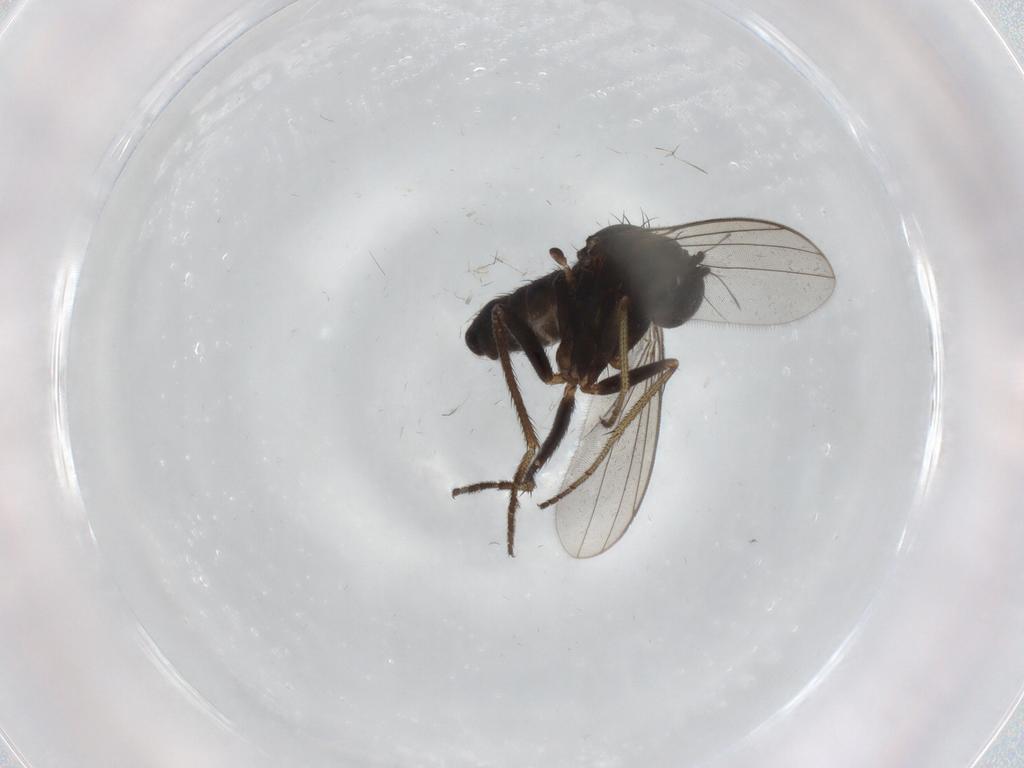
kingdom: Animalia
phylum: Arthropoda
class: Insecta
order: Diptera
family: Dolichopodidae
